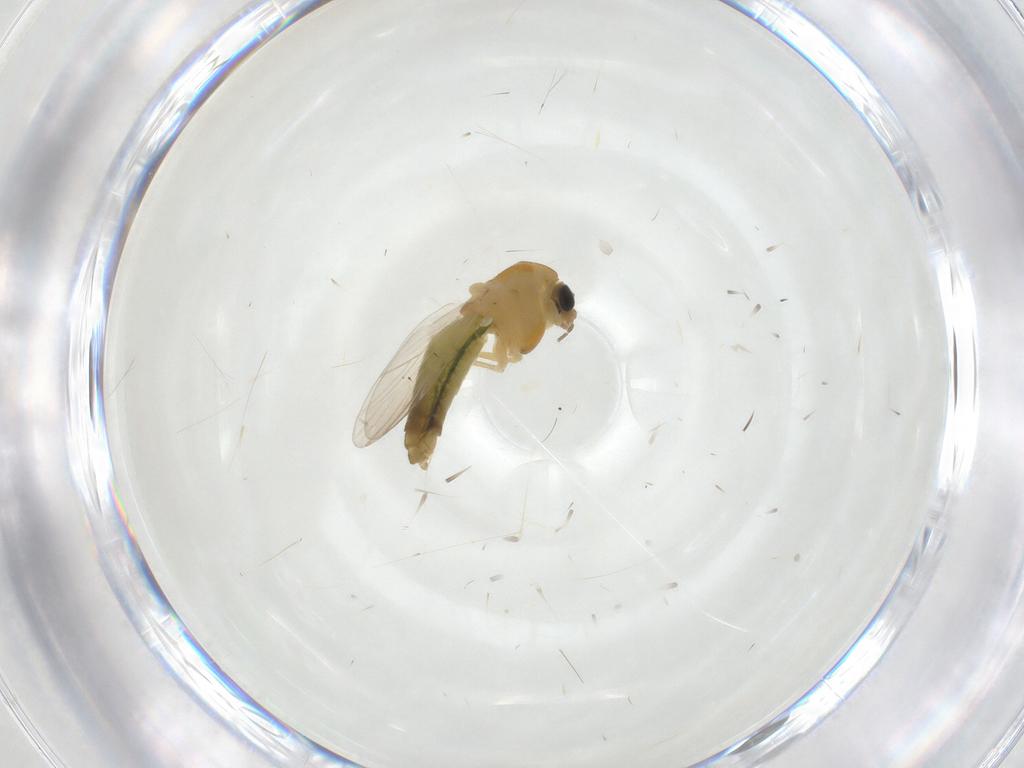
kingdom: Animalia
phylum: Arthropoda
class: Insecta
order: Diptera
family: Chironomidae
